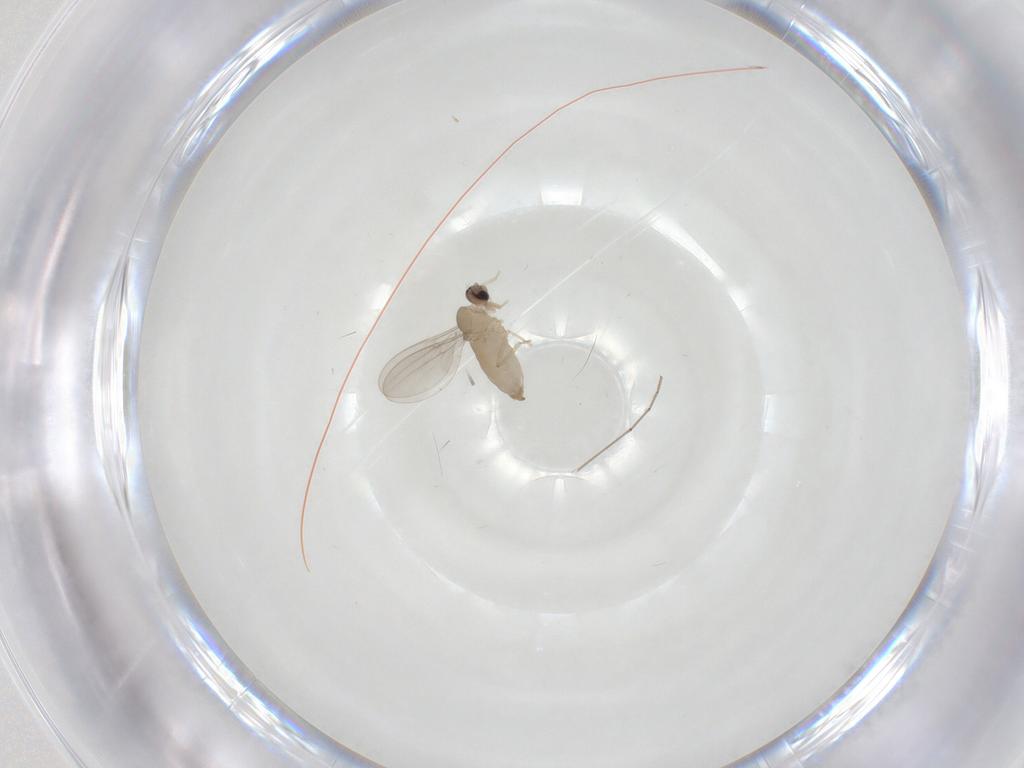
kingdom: Animalia
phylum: Arthropoda
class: Insecta
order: Diptera
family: Cecidomyiidae
